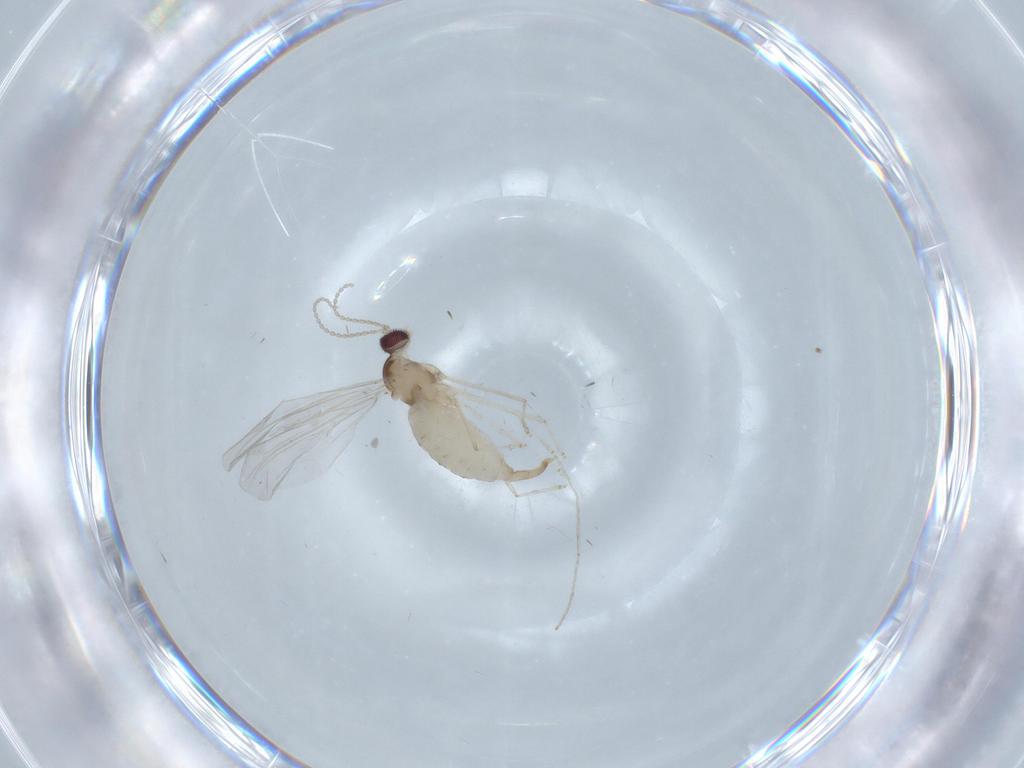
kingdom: Animalia
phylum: Arthropoda
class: Insecta
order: Diptera
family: Cecidomyiidae
